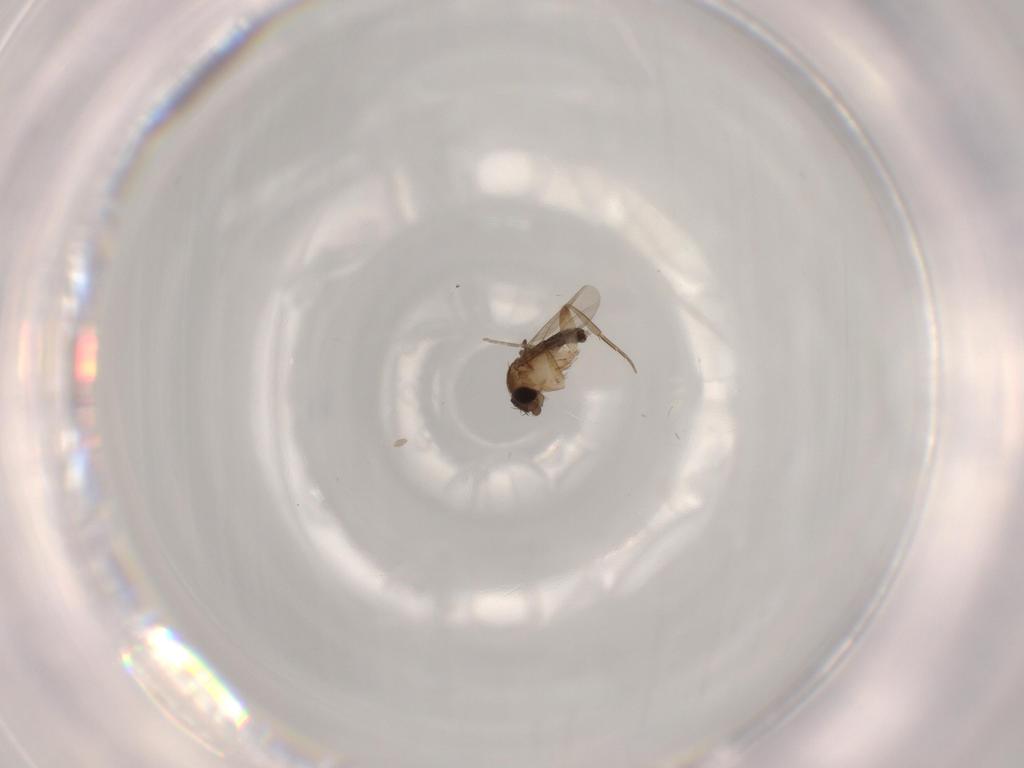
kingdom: Animalia
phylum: Arthropoda
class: Insecta
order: Diptera
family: Phoridae
